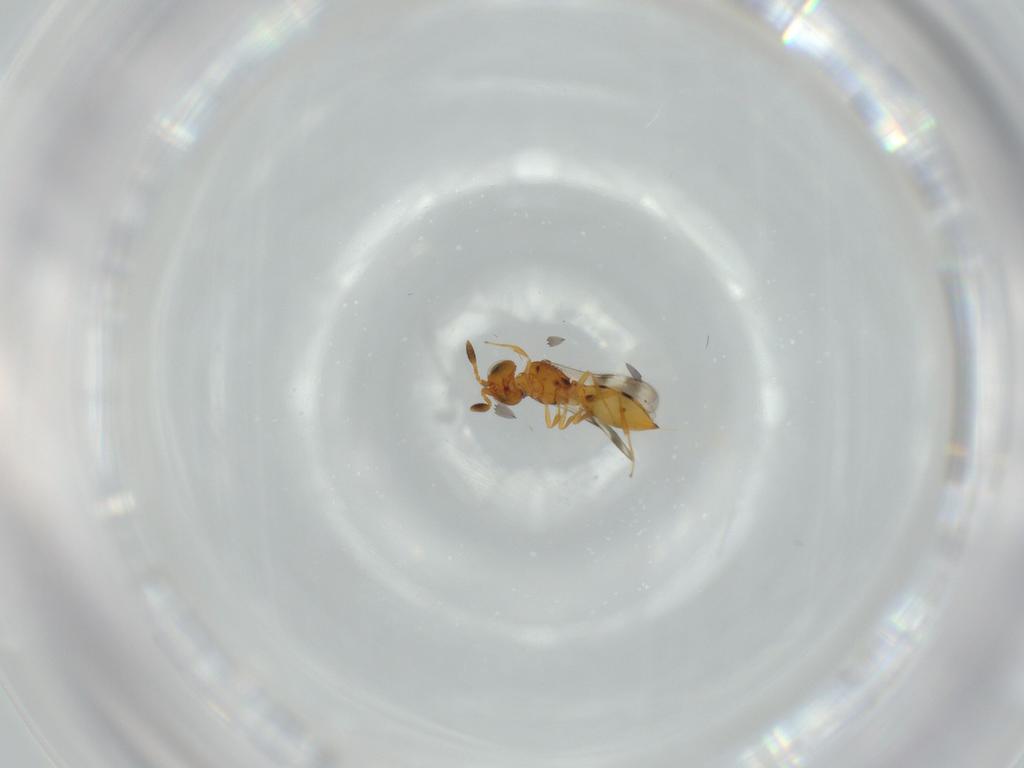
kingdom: Animalia
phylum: Arthropoda
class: Insecta
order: Hymenoptera
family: Scelionidae
